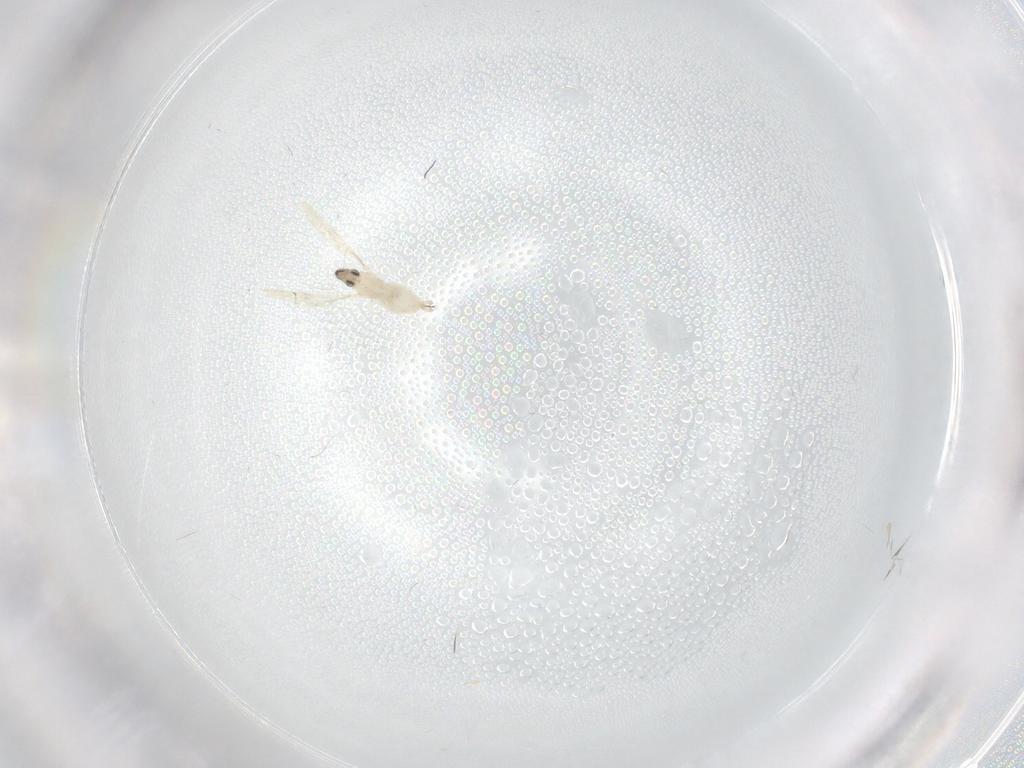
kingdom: Animalia
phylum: Arthropoda
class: Insecta
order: Diptera
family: Cecidomyiidae
